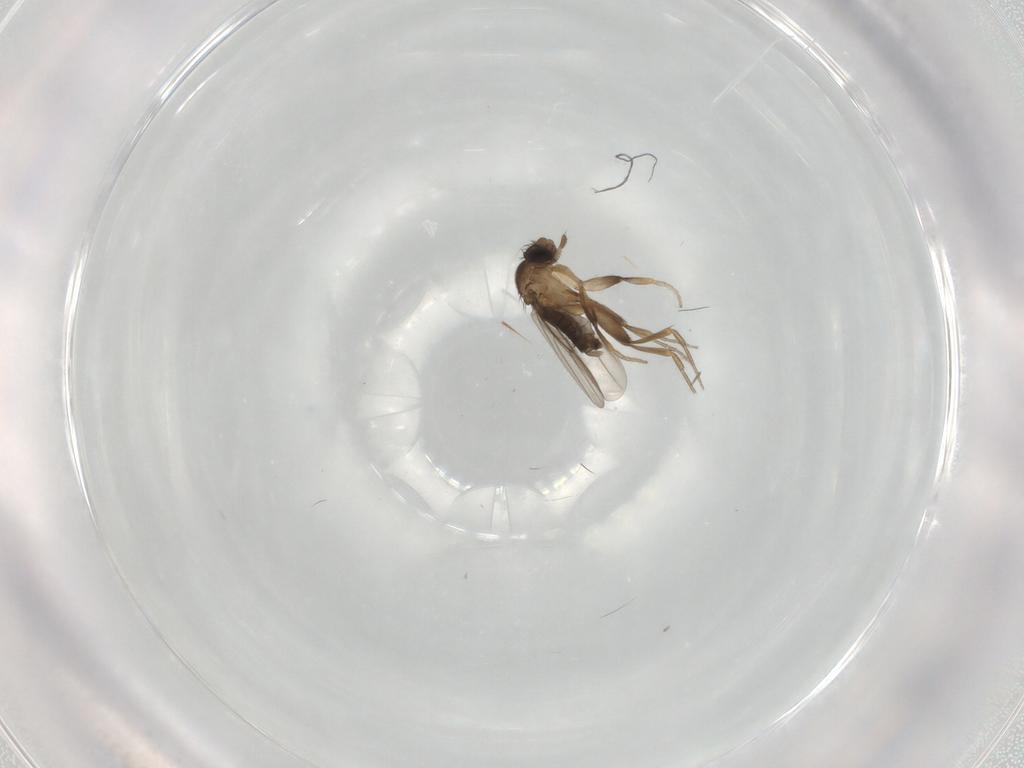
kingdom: Animalia
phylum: Arthropoda
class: Insecta
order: Diptera
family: Phoridae
